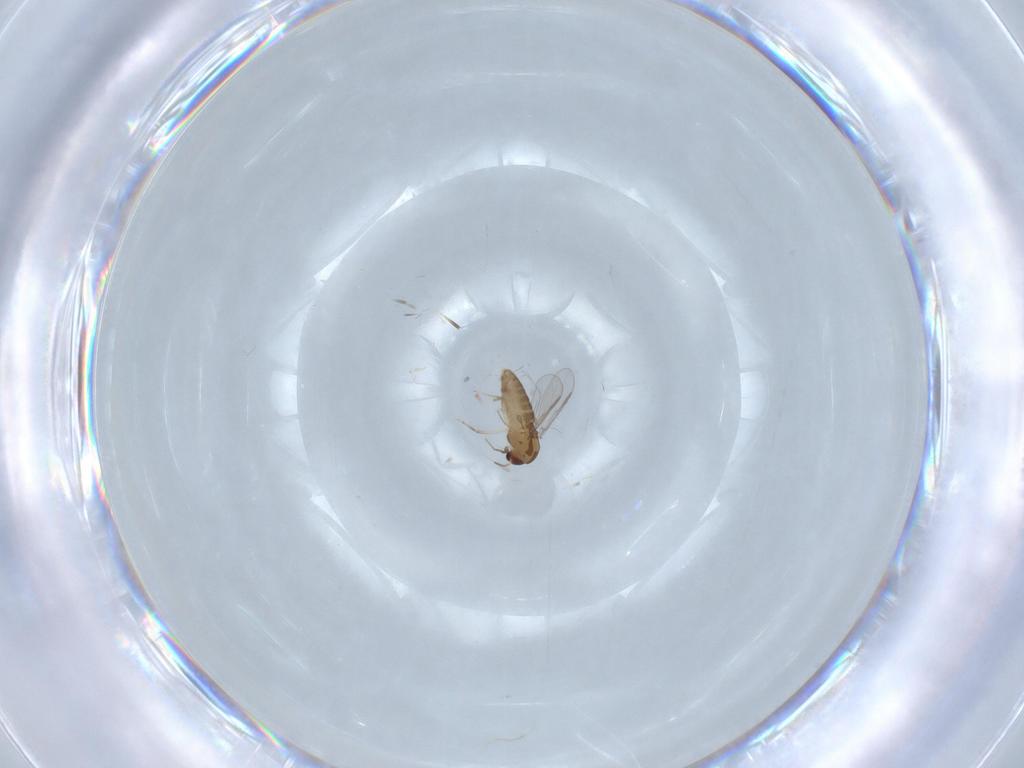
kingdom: Animalia
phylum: Arthropoda
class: Insecta
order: Diptera
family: Chironomidae
